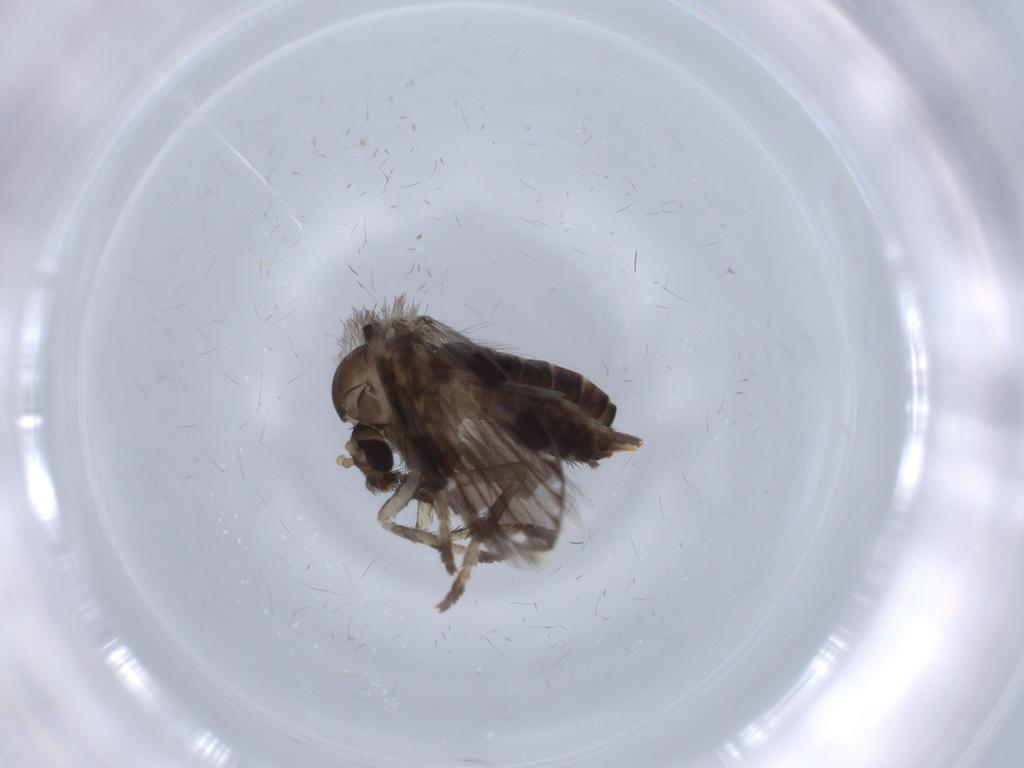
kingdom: Animalia
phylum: Arthropoda
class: Insecta
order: Diptera
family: Psychodidae
